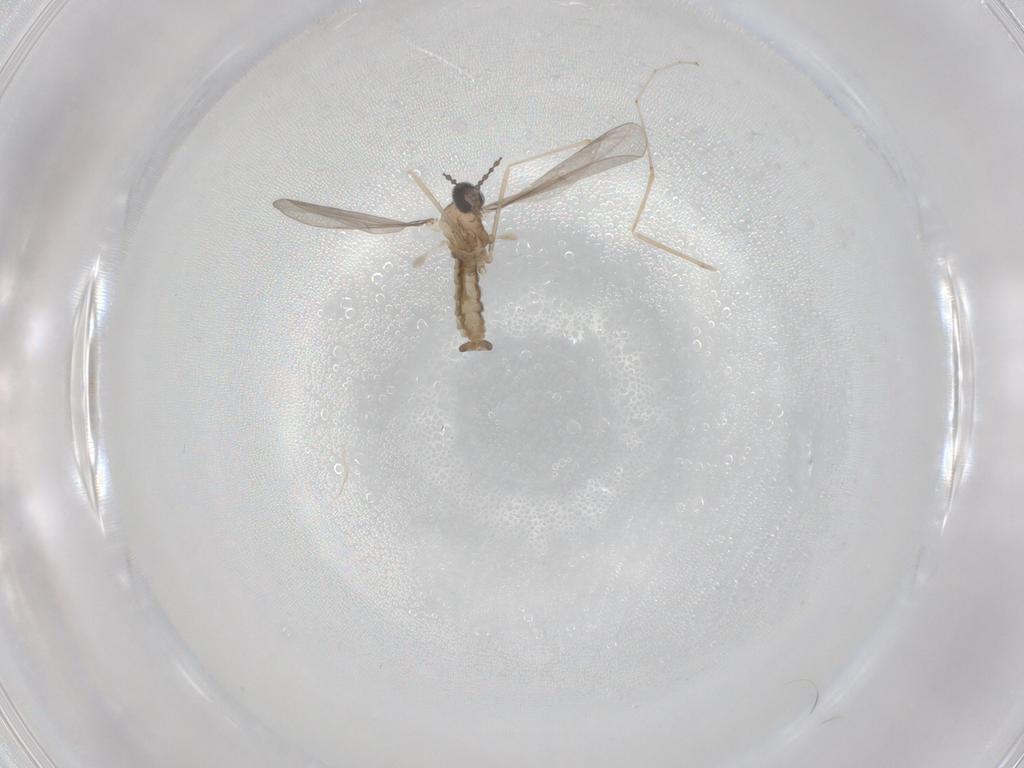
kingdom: Animalia
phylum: Arthropoda
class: Insecta
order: Diptera
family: Cecidomyiidae
